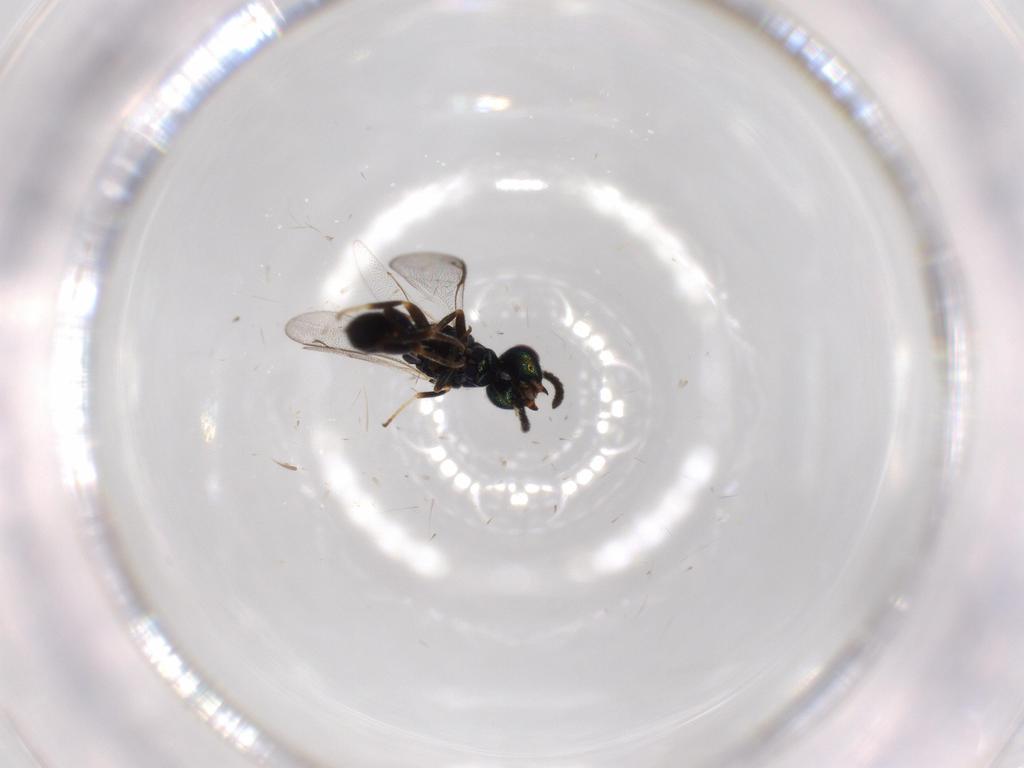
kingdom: Animalia
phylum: Arthropoda
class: Insecta
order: Hymenoptera
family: Cleonyminae
